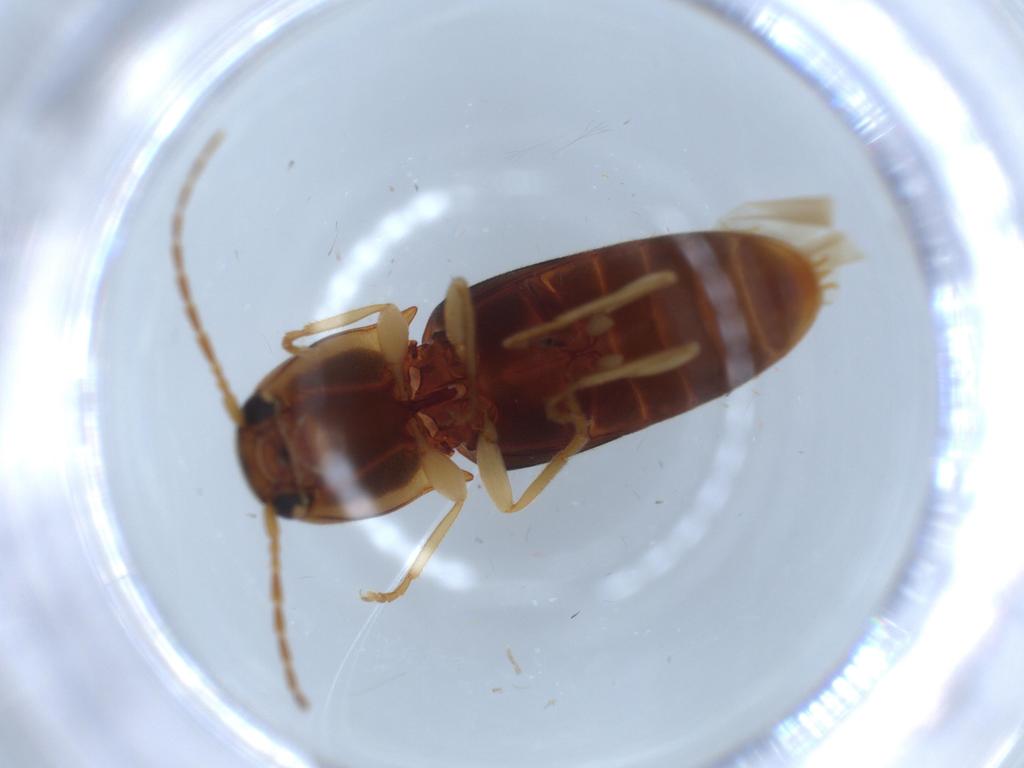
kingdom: Animalia
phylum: Arthropoda
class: Insecta
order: Coleoptera
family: Elateridae
